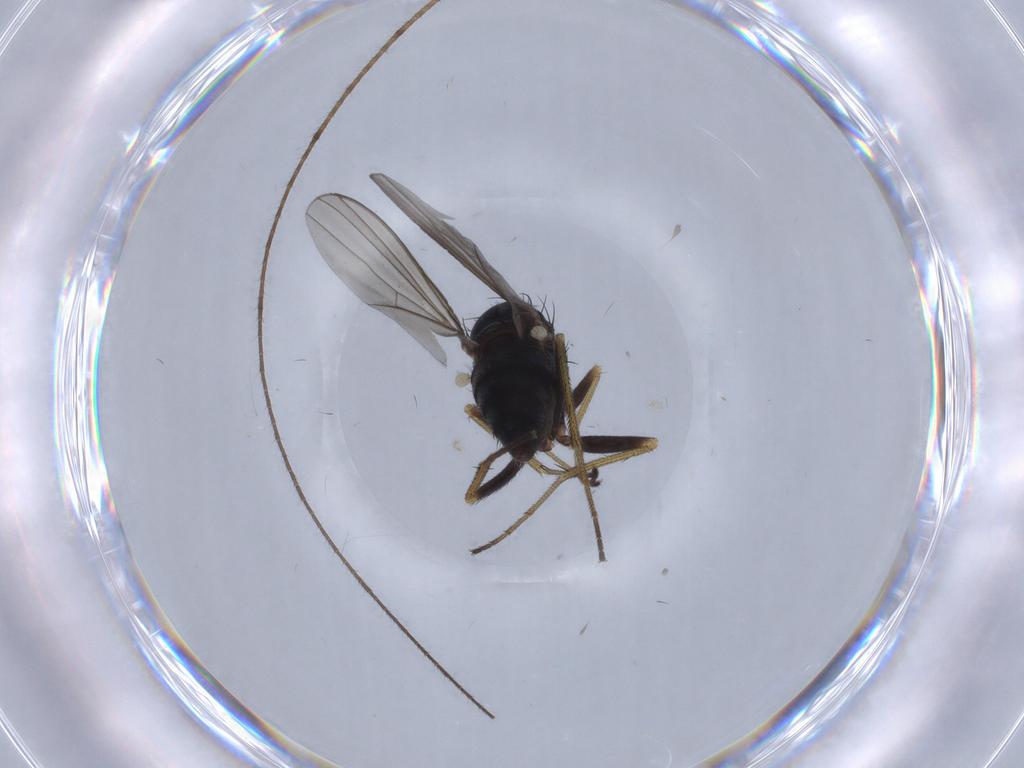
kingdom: Animalia
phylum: Arthropoda
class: Insecta
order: Diptera
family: Dolichopodidae
